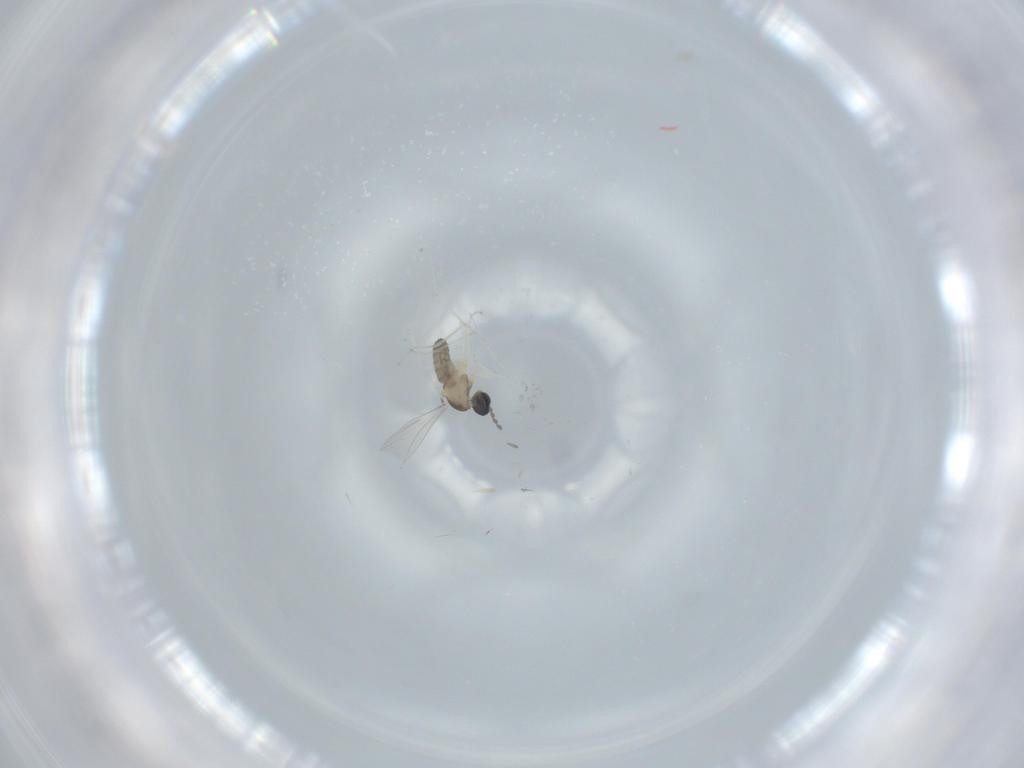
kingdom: Animalia
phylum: Arthropoda
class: Insecta
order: Diptera
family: Cecidomyiidae
